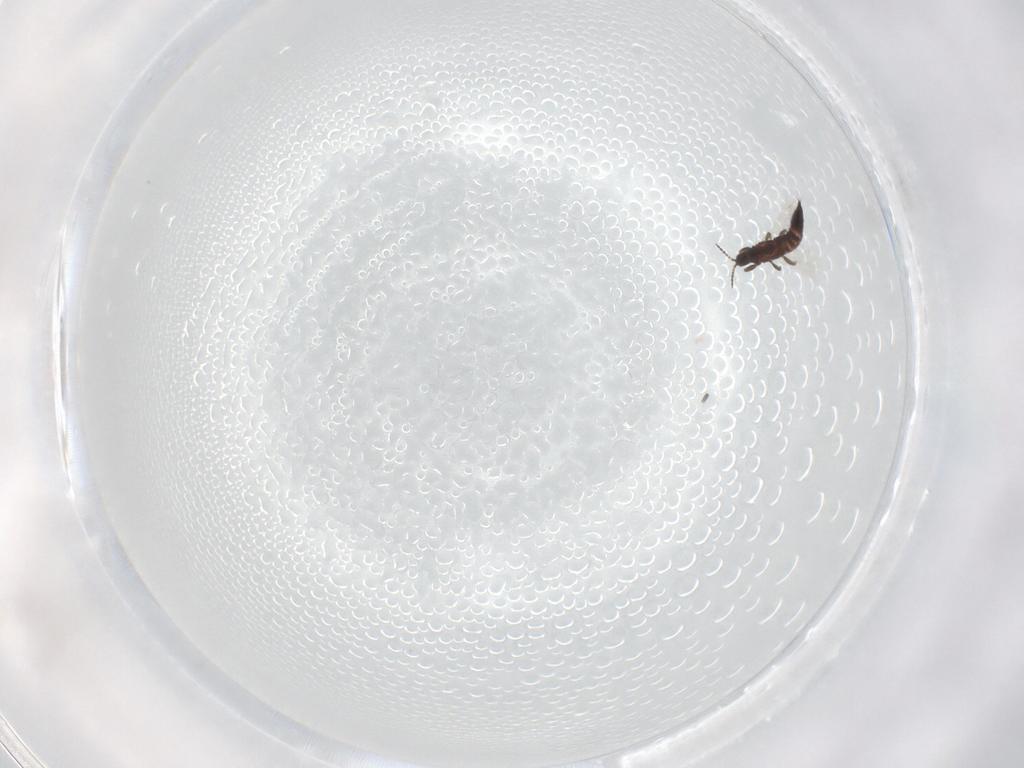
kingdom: Animalia
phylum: Arthropoda
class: Insecta
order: Thysanoptera
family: Phlaeothripidae
